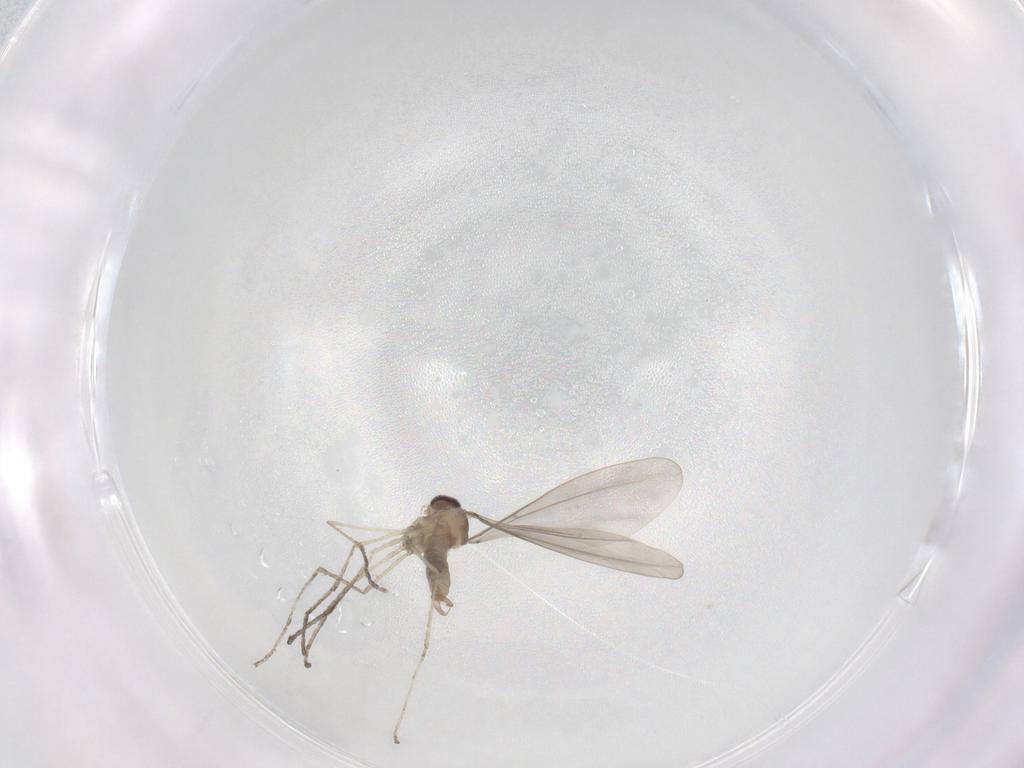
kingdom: Animalia
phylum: Arthropoda
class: Insecta
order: Diptera
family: Cecidomyiidae
